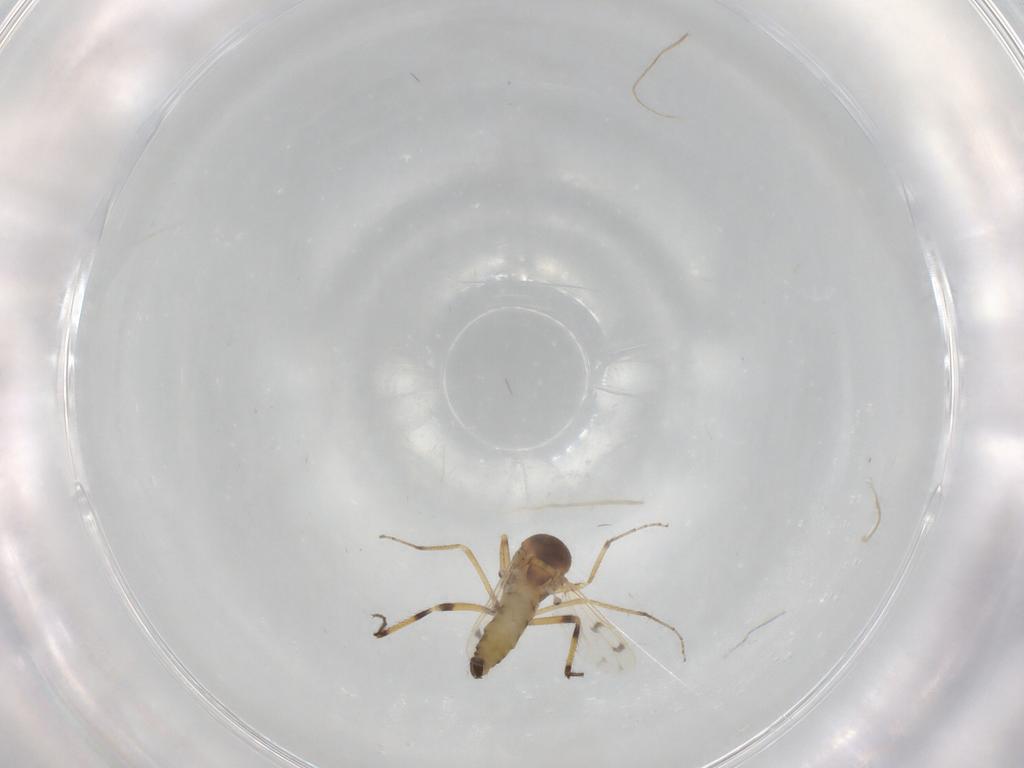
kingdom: Animalia
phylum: Arthropoda
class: Insecta
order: Diptera
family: Ceratopogonidae
